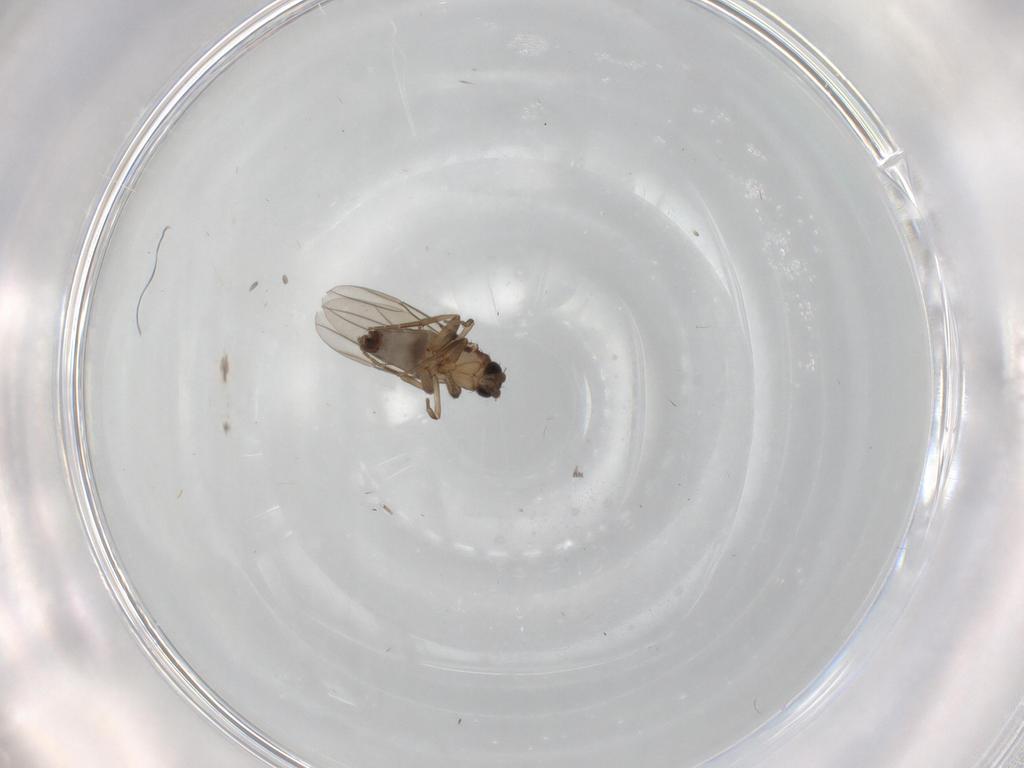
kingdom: Animalia
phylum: Arthropoda
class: Insecta
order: Diptera
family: Phoridae
